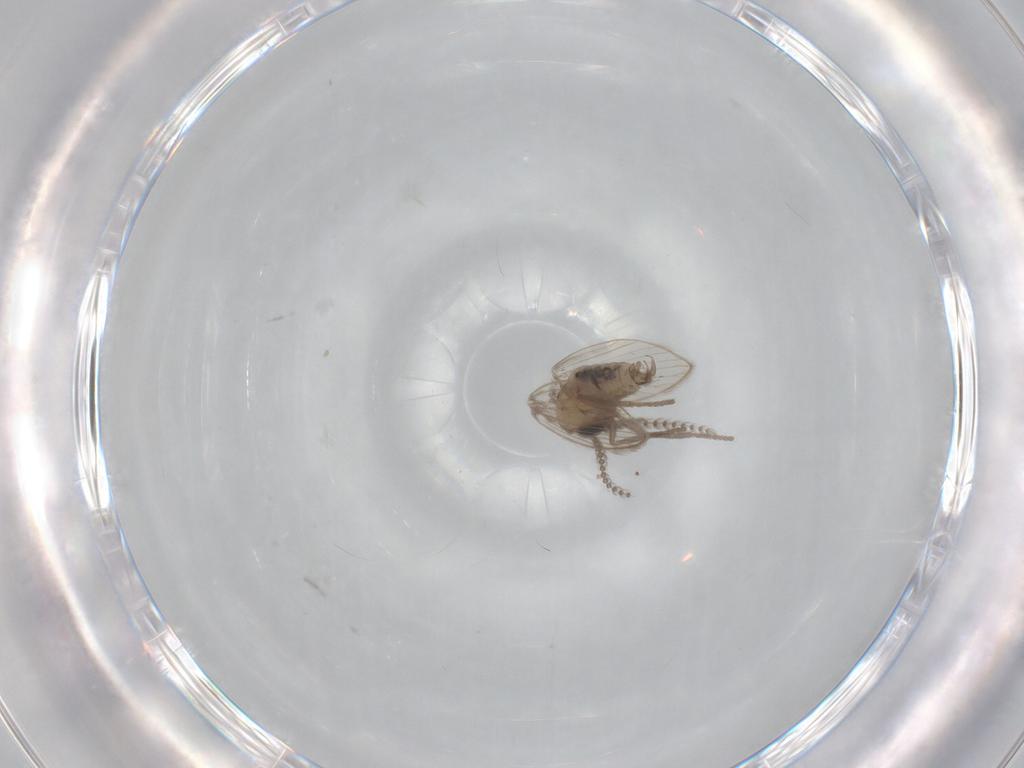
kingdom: Animalia
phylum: Arthropoda
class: Insecta
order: Diptera
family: Psychodidae
